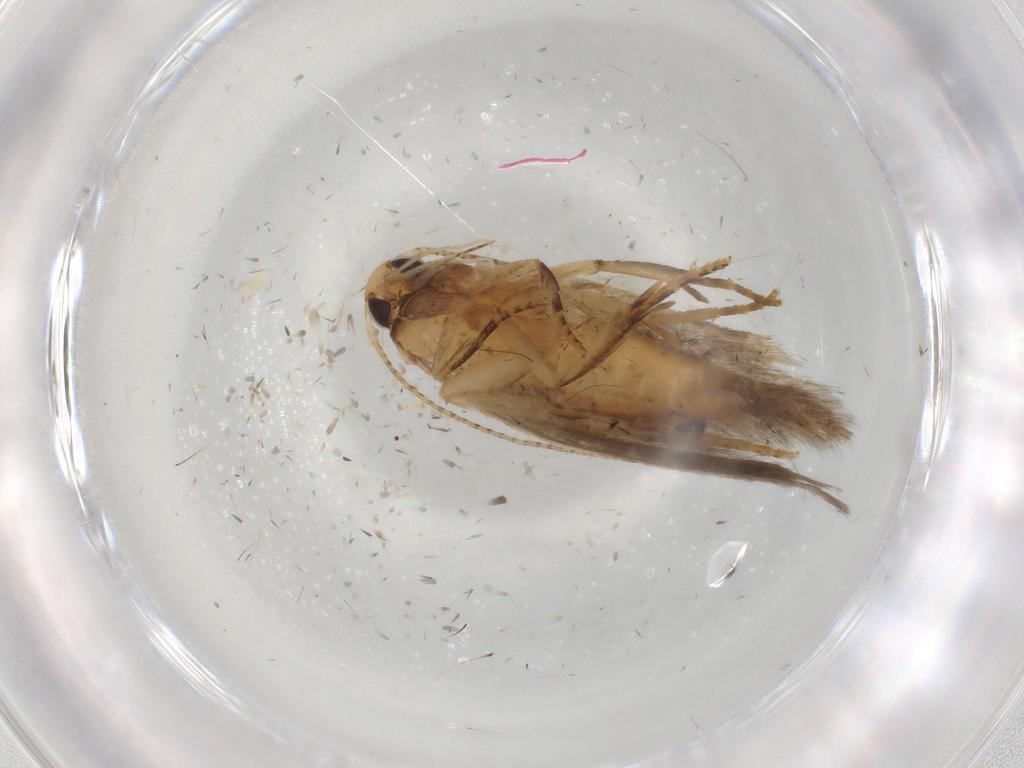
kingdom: Animalia
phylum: Arthropoda
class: Insecta
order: Lepidoptera
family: Gelechiidae
